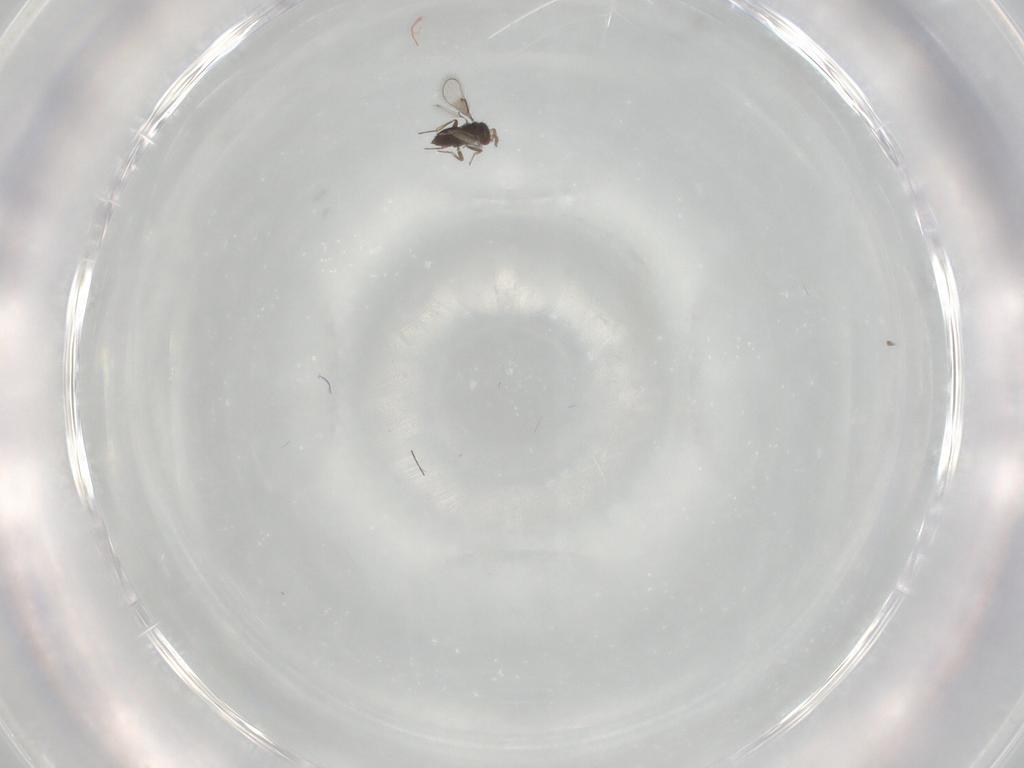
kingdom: Animalia
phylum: Arthropoda
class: Insecta
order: Hymenoptera
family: Trichogrammatidae
